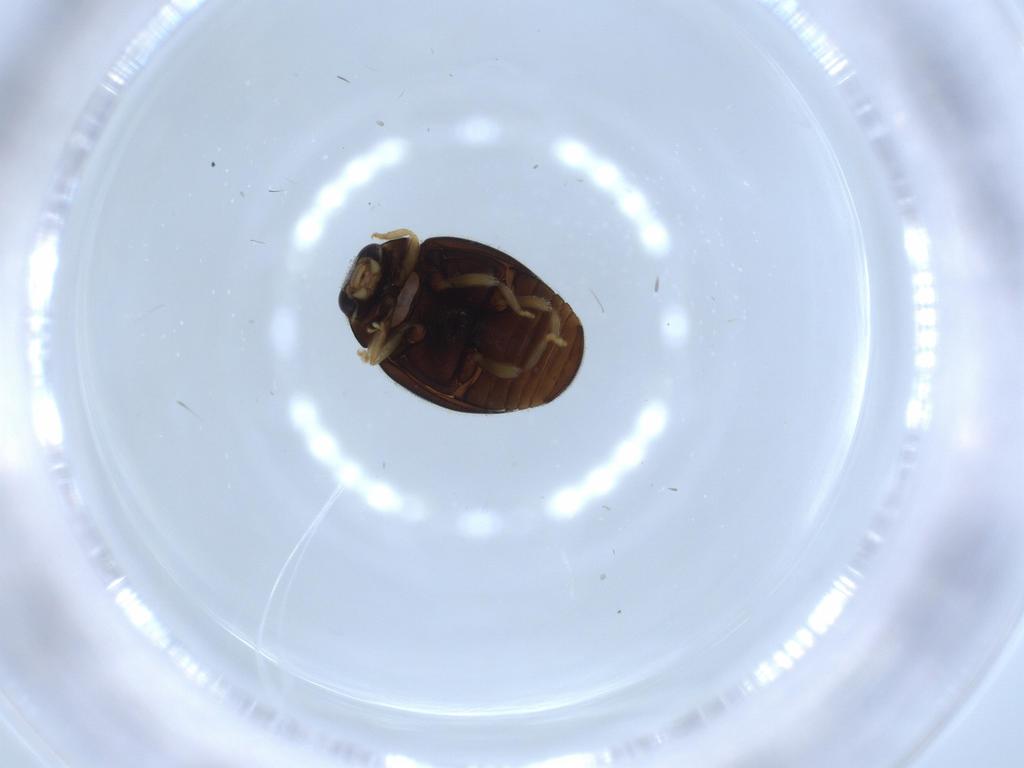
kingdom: Animalia
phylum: Arthropoda
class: Insecta
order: Coleoptera
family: Coccinellidae
